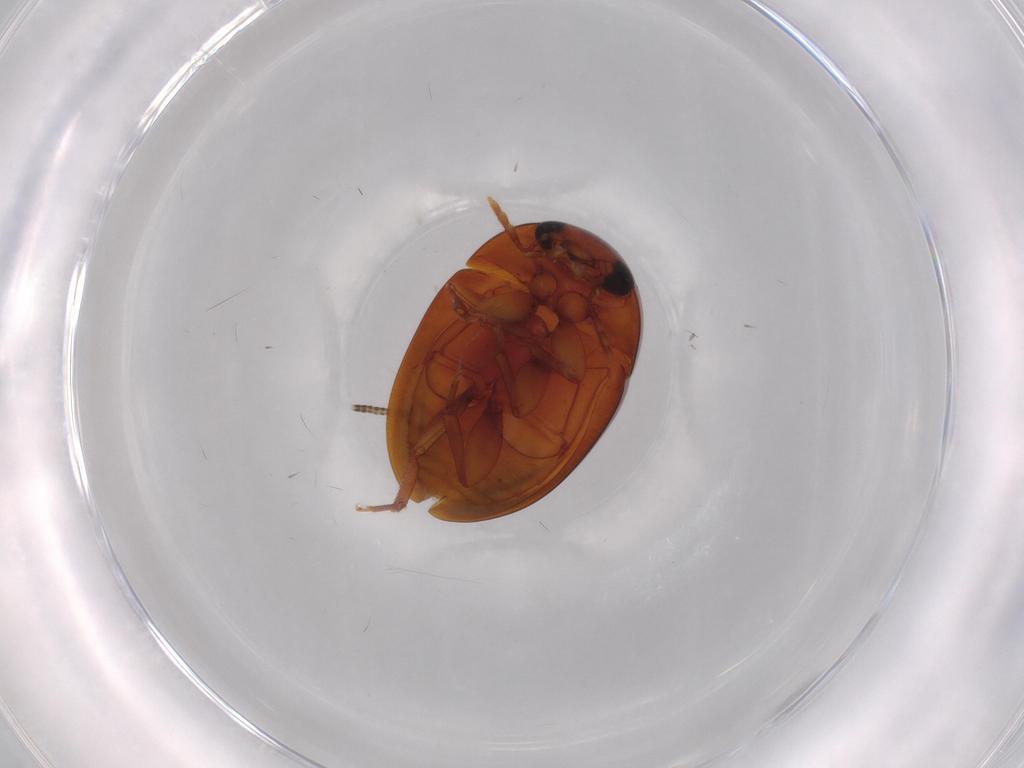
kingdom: Animalia
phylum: Arthropoda
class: Insecta
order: Coleoptera
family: Phalacridae
